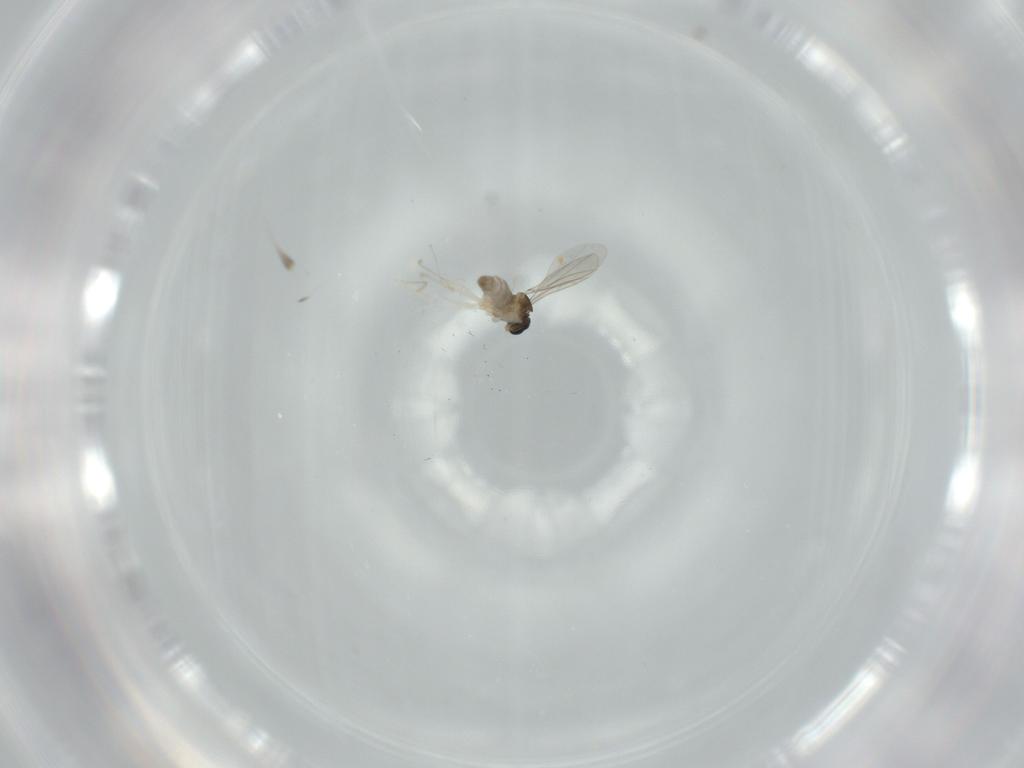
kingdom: Animalia
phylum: Arthropoda
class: Insecta
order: Diptera
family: Cecidomyiidae
